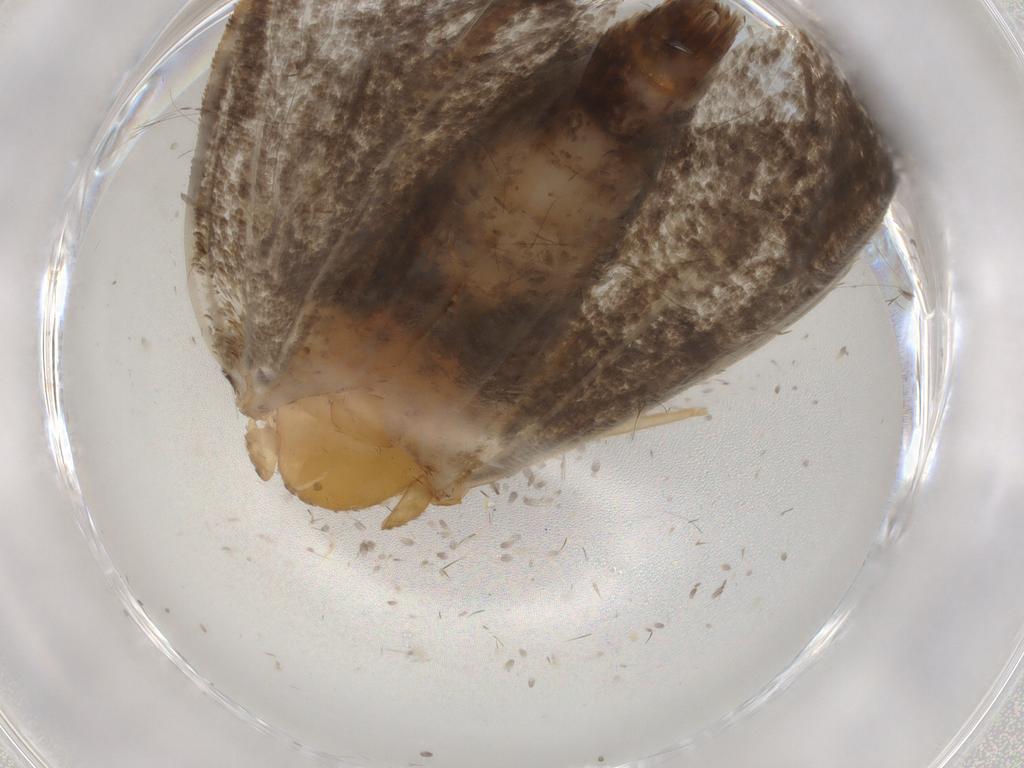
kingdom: Animalia
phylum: Arthropoda
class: Insecta
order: Lepidoptera
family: Tineidae
